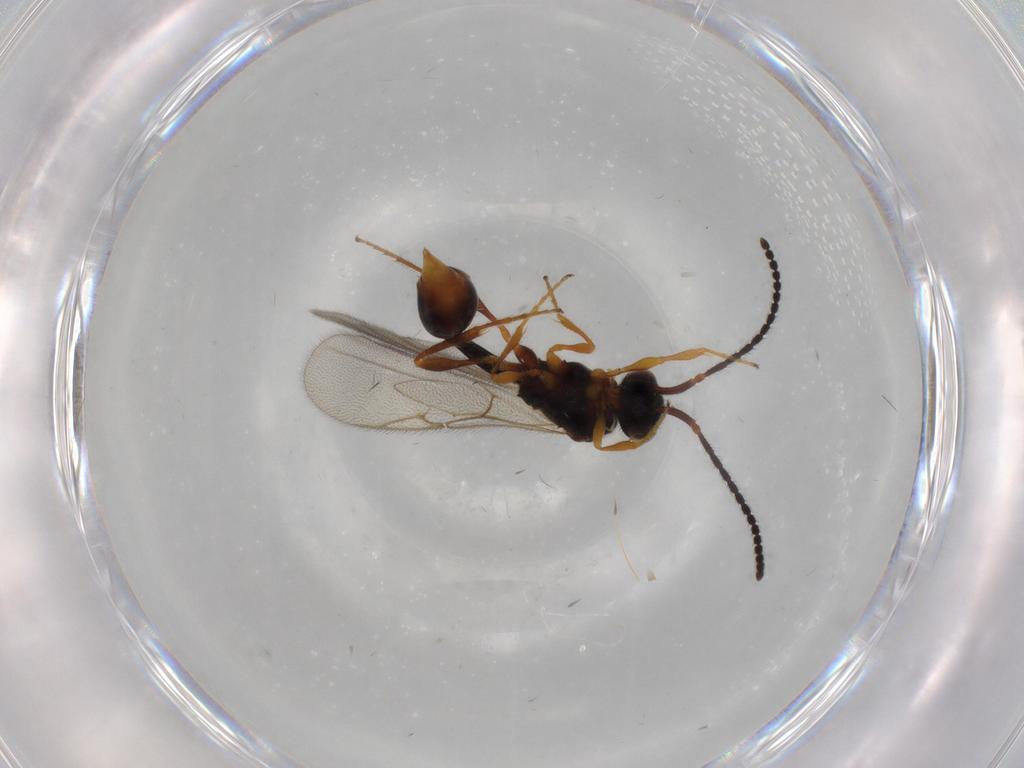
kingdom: Animalia
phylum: Arthropoda
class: Insecta
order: Hymenoptera
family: Diapriidae
